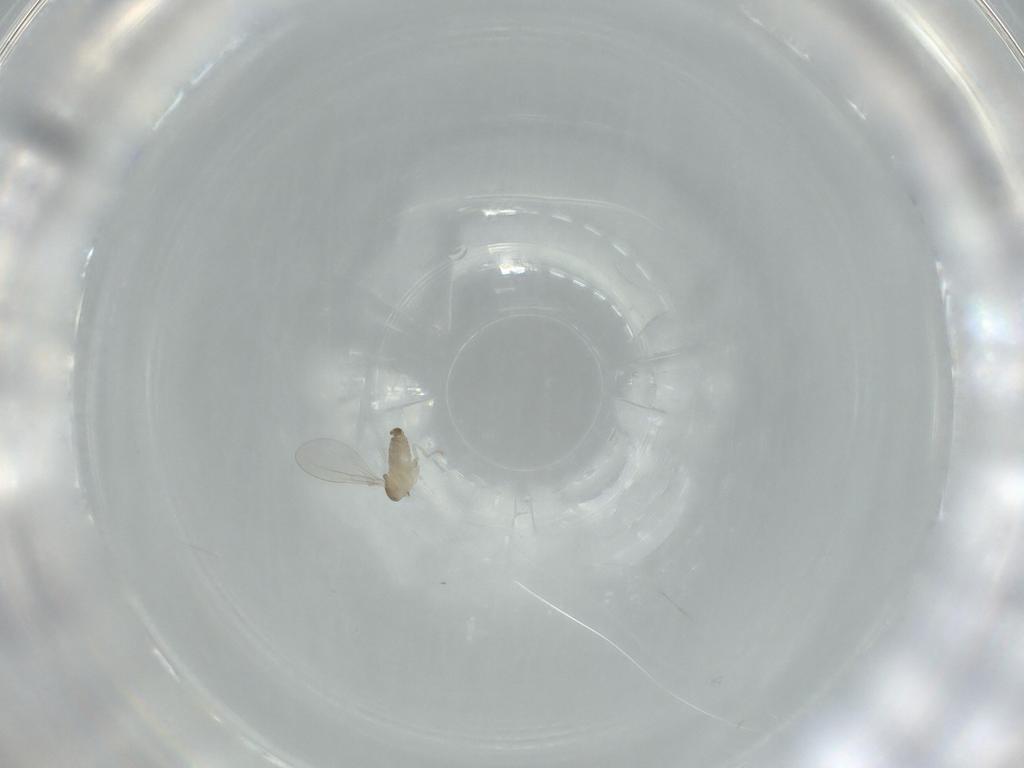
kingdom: Animalia
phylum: Arthropoda
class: Insecta
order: Diptera
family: Cecidomyiidae
